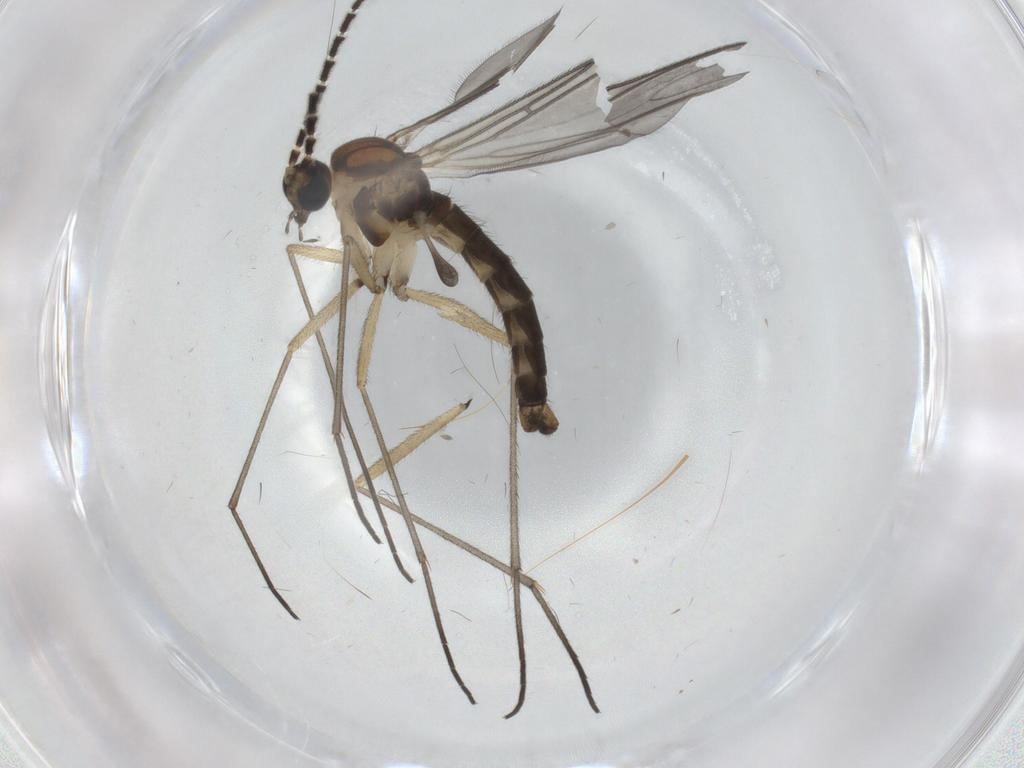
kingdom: Animalia
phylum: Arthropoda
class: Insecta
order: Diptera
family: Sciaridae
